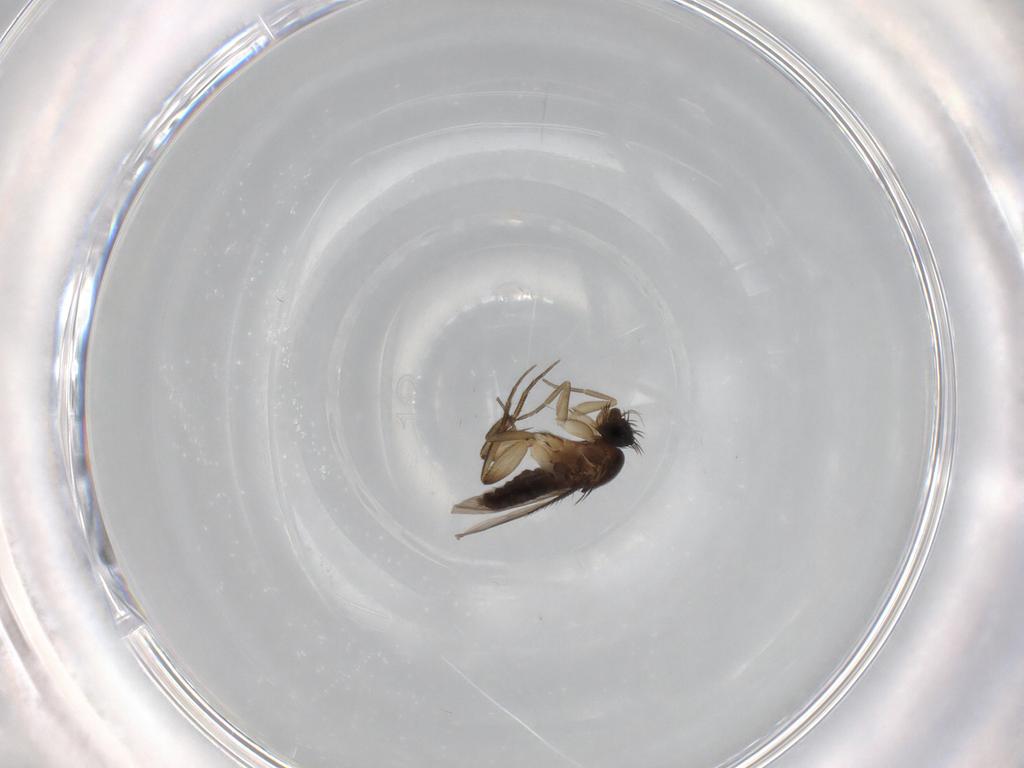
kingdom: Animalia
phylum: Arthropoda
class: Insecta
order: Diptera
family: Phoridae
